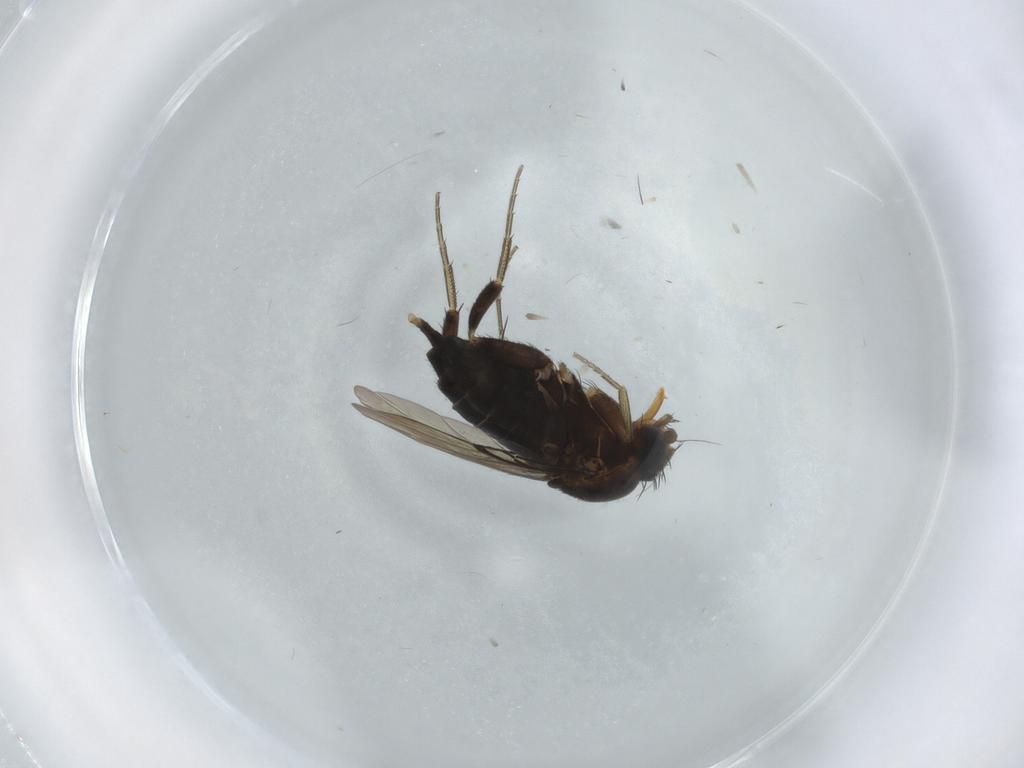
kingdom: Animalia
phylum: Arthropoda
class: Insecta
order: Diptera
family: Phoridae
